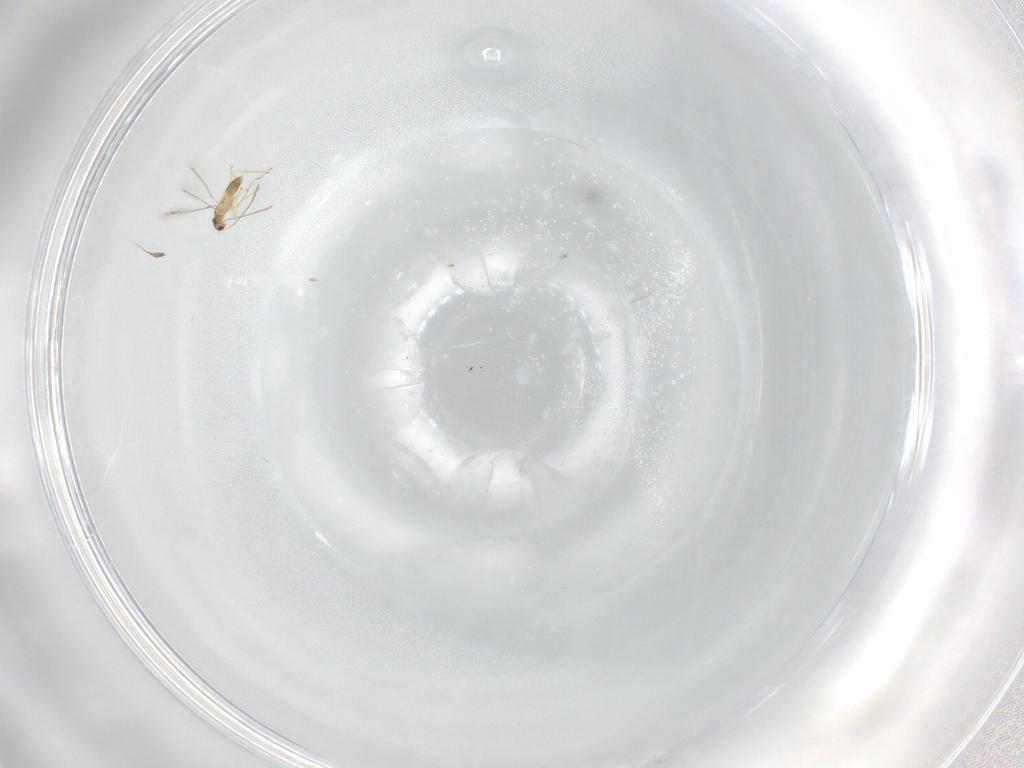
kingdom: Animalia
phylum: Arthropoda
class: Insecta
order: Hymenoptera
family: Mymaridae
